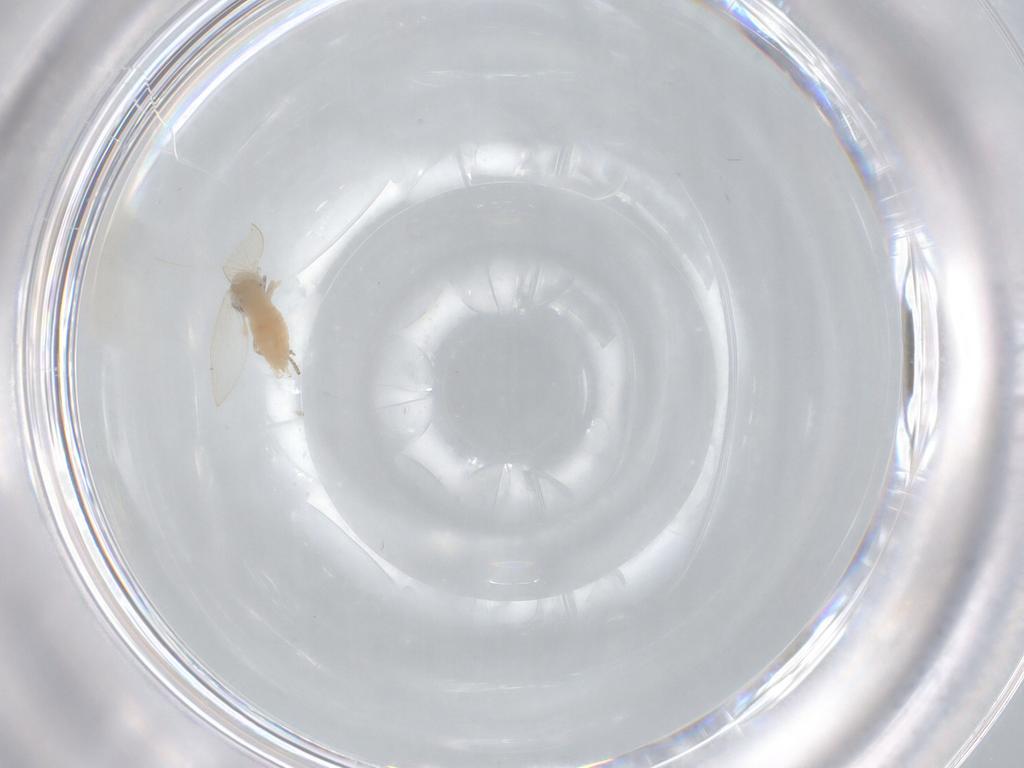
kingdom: Animalia
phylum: Arthropoda
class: Insecta
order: Diptera
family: Psychodidae
